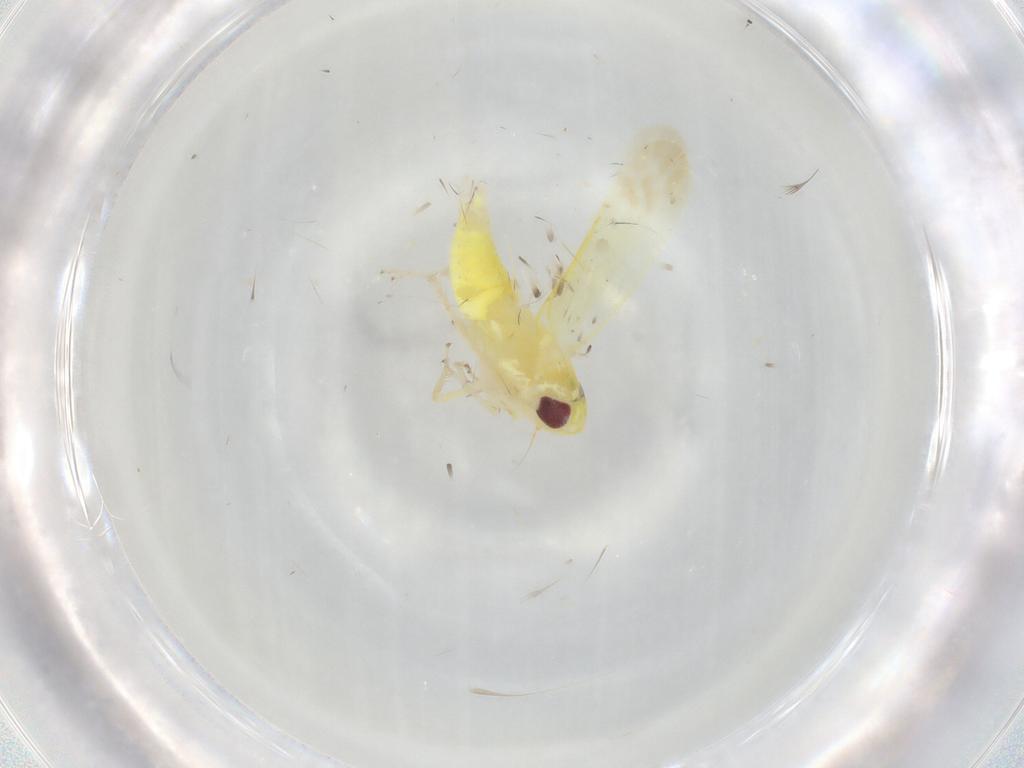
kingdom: Animalia
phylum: Arthropoda
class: Insecta
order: Hemiptera
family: Cicadellidae
